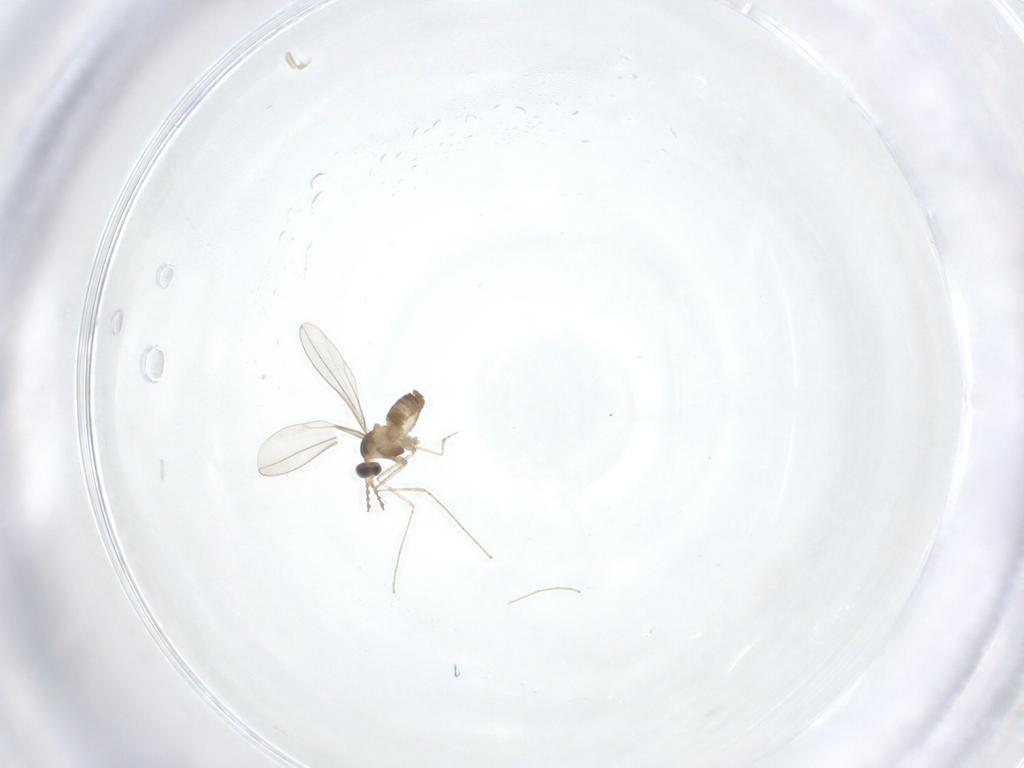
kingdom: Animalia
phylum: Arthropoda
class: Insecta
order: Diptera
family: Cecidomyiidae
